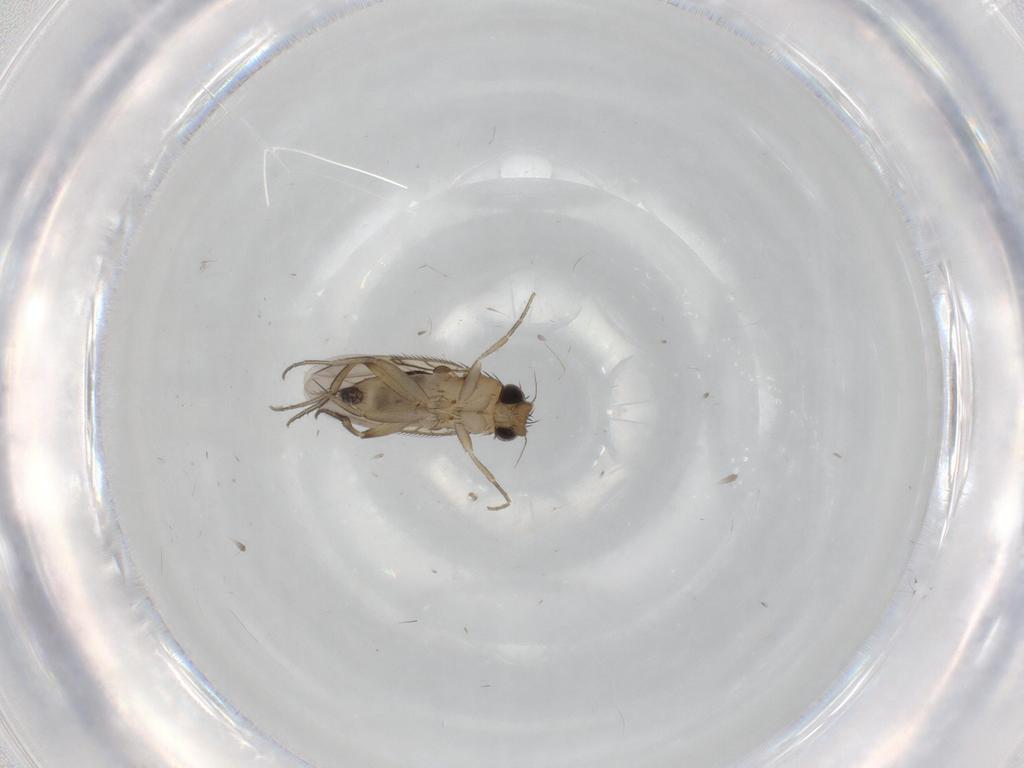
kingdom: Animalia
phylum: Arthropoda
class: Insecta
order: Diptera
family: Phoridae
